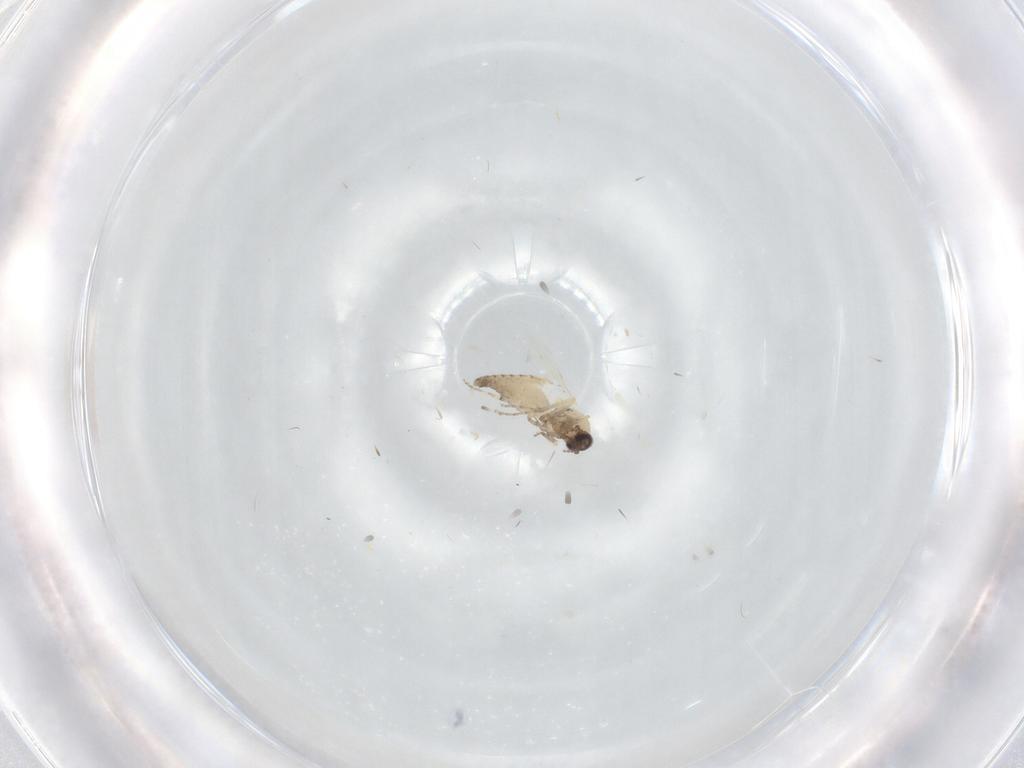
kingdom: Animalia
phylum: Arthropoda
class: Insecta
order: Diptera
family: Ceratopogonidae
